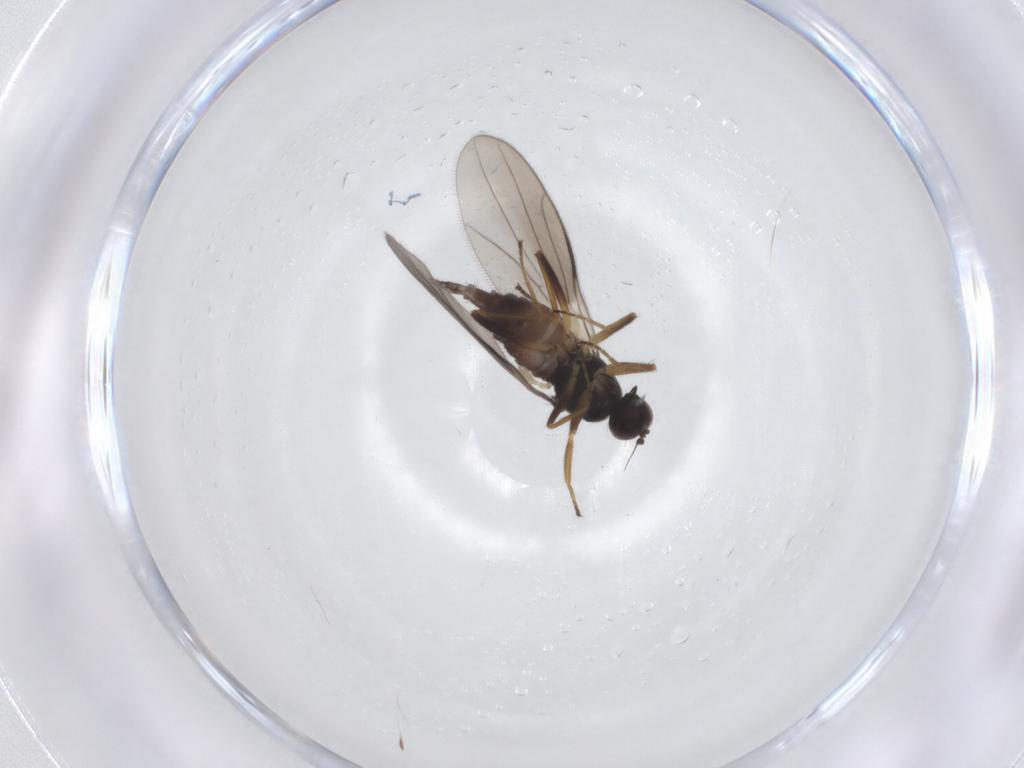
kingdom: Animalia
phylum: Arthropoda
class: Insecta
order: Diptera
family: Hybotidae
